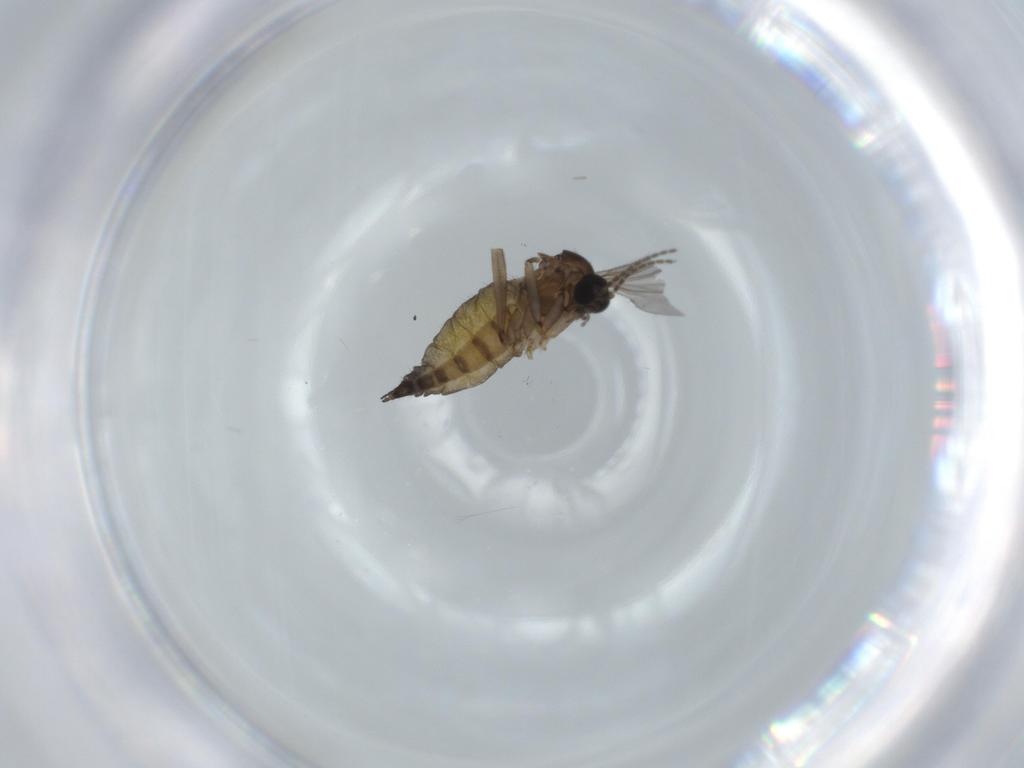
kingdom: Animalia
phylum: Arthropoda
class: Insecta
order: Diptera
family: Sciaridae
